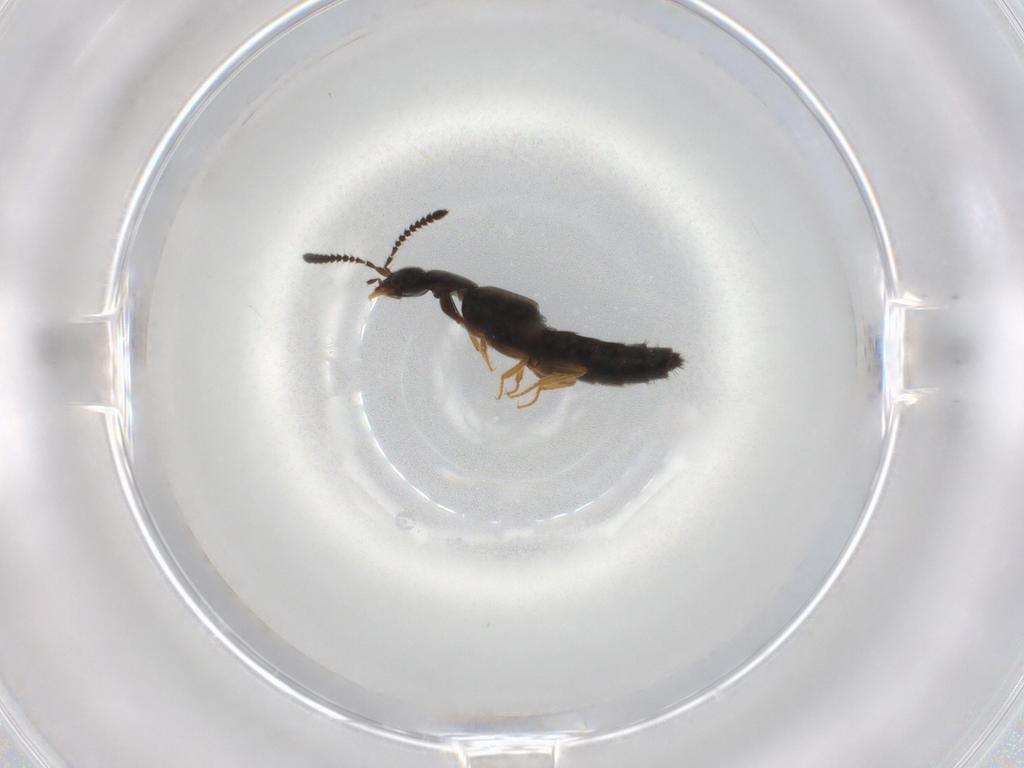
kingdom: Animalia
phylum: Arthropoda
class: Insecta
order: Coleoptera
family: Staphylinidae
